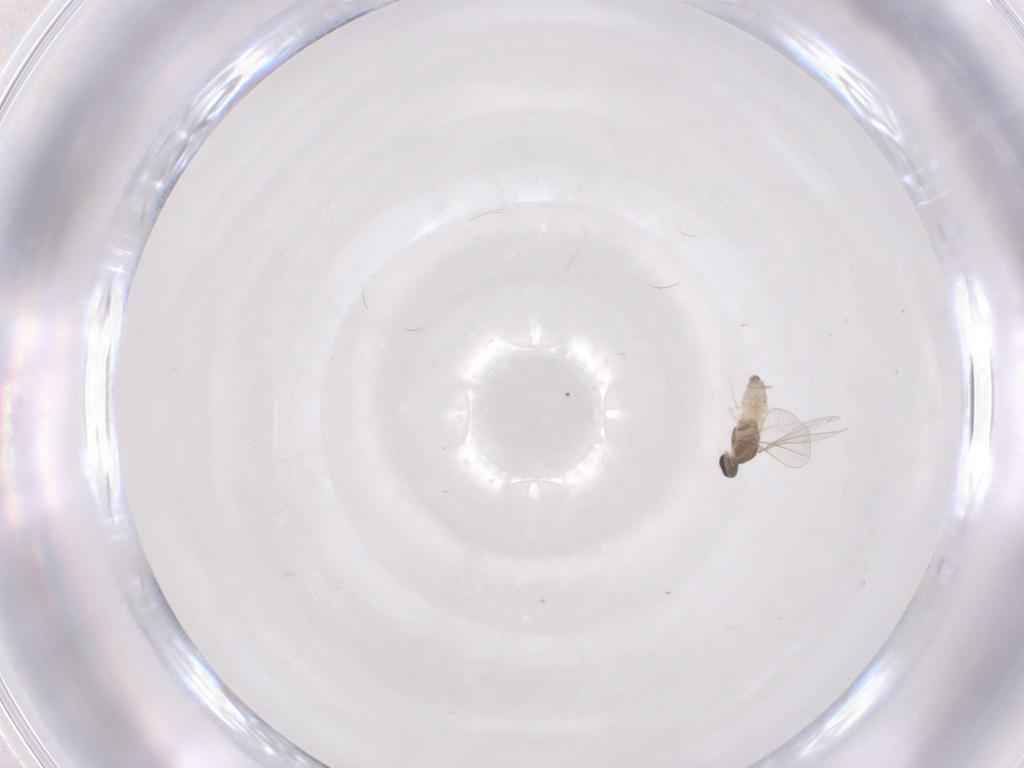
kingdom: Animalia
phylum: Arthropoda
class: Insecta
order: Diptera
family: Cecidomyiidae
